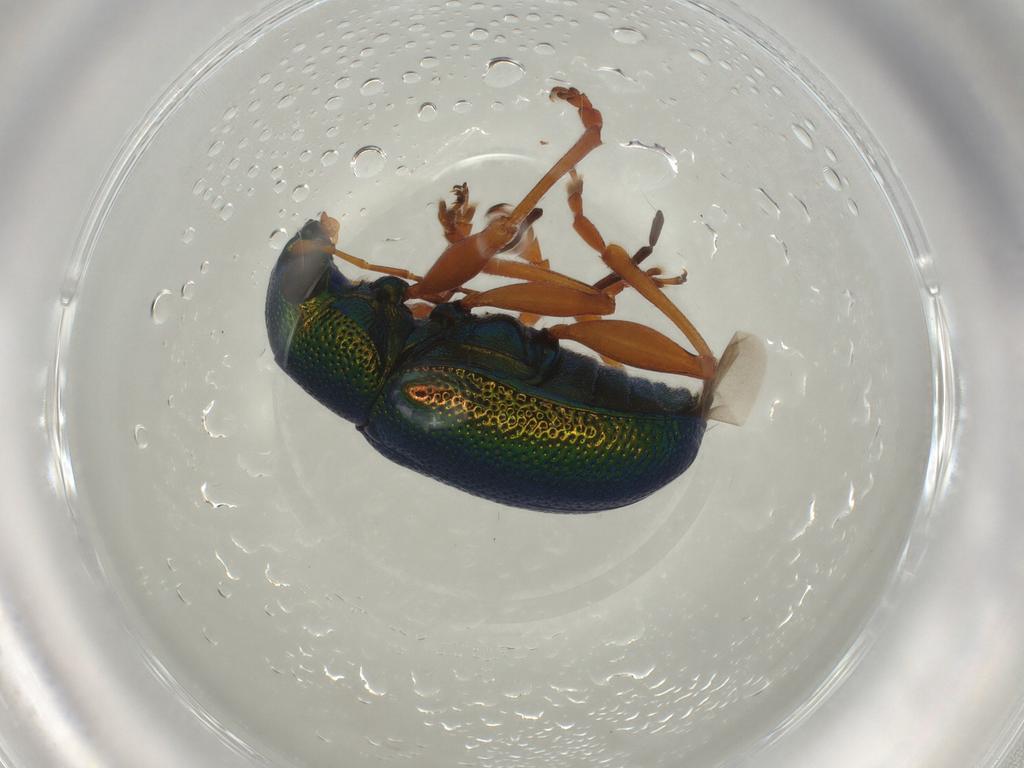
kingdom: Animalia
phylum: Arthropoda
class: Insecta
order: Coleoptera
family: Chrysomelidae
